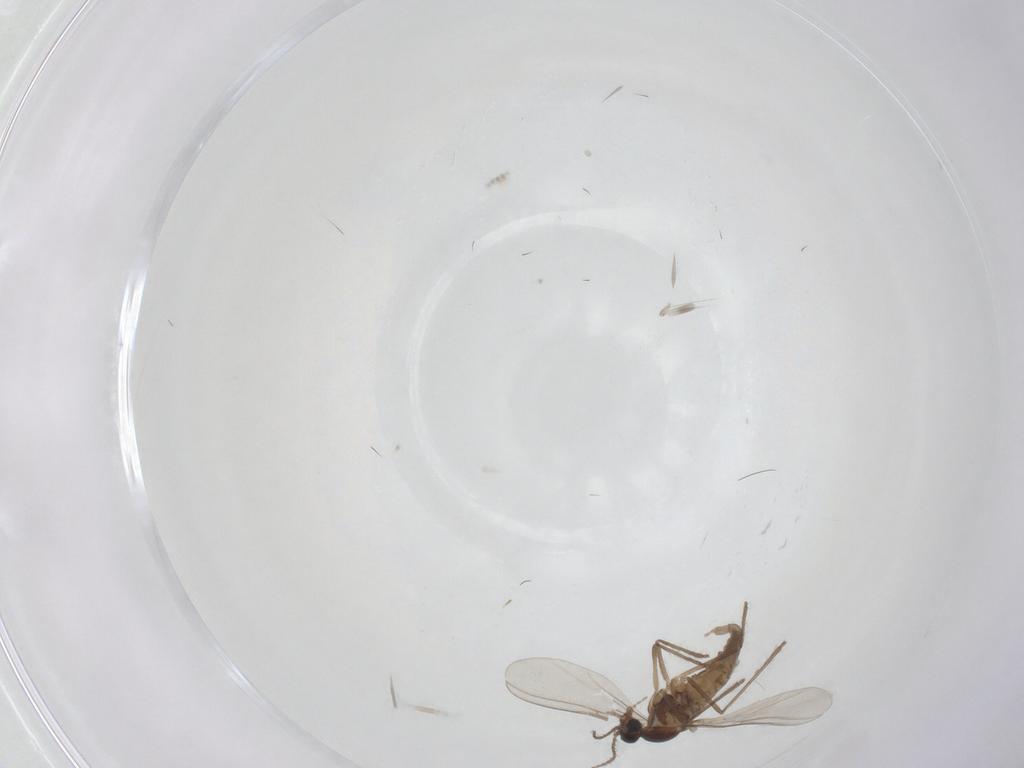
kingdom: Animalia
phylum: Arthropoda
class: Insecta
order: Diptera
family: Cecidomyiidae
